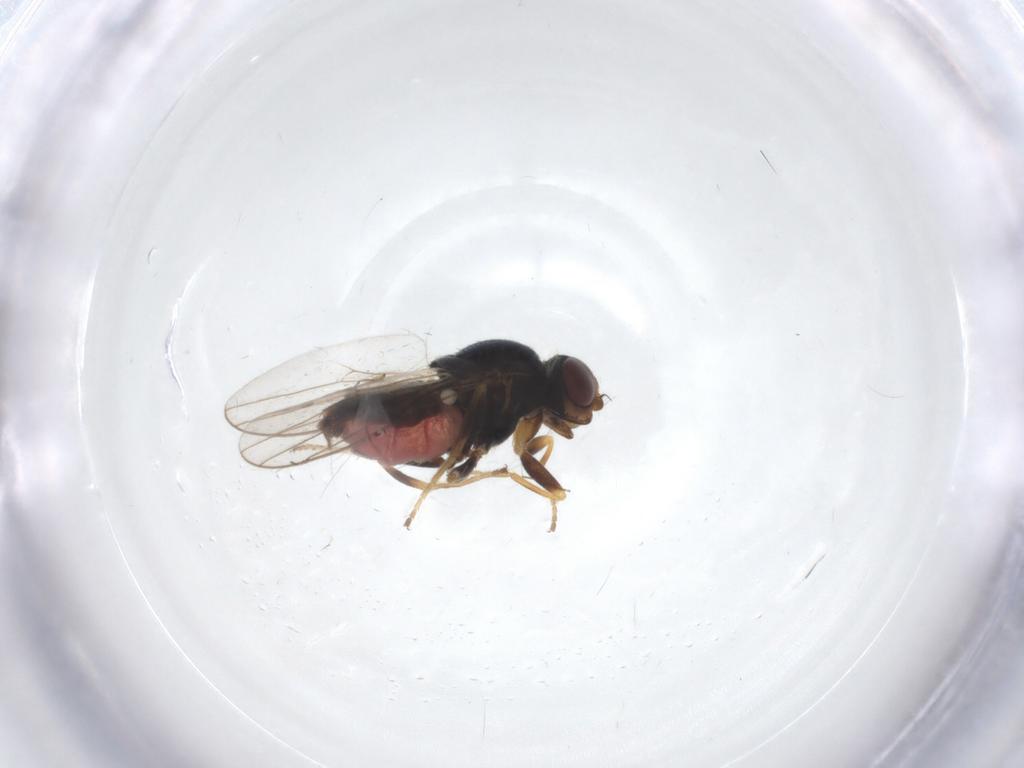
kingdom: Animalia
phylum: Arthropoda
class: Insecta
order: Diptera
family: Chloropidae
